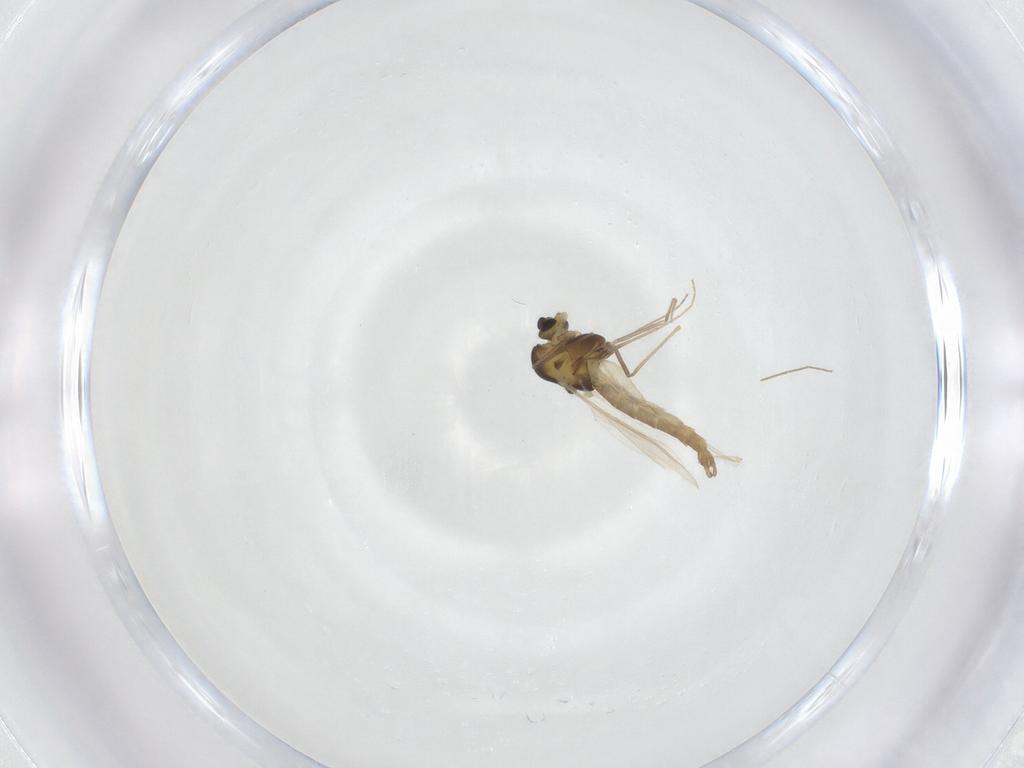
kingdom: Animalia
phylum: Arthropoda
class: Insecta
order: Diptera
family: Chironomidae
